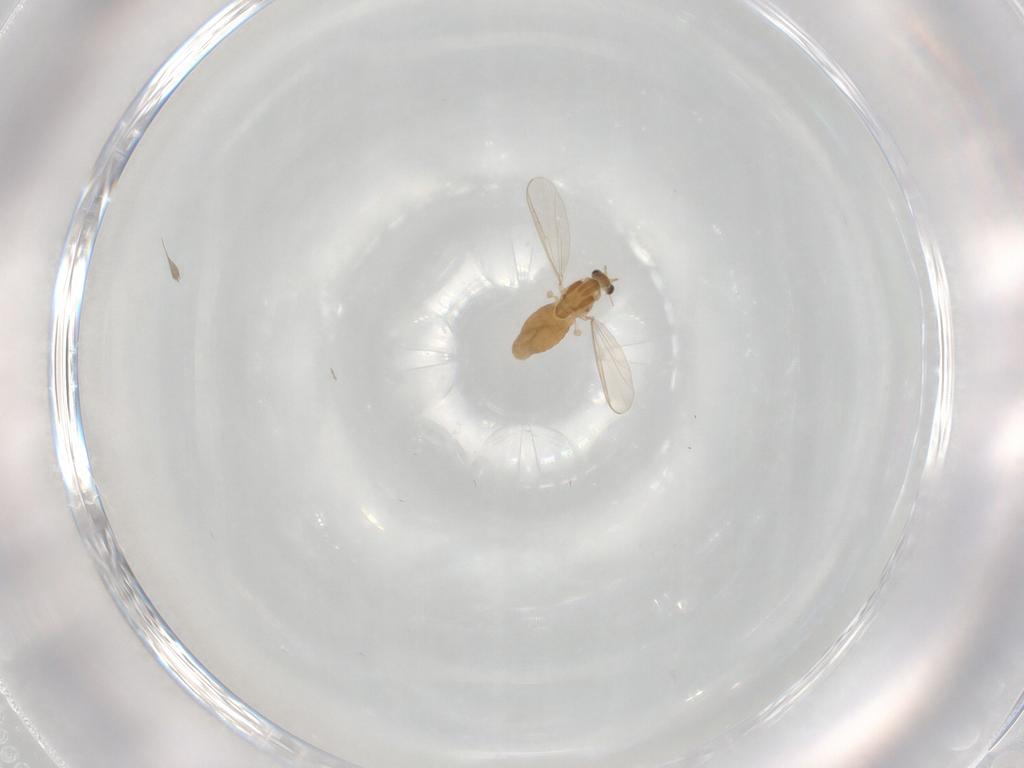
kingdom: Animalia
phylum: Arthropoda
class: Insecta
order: Diptera
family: Chironomidae
